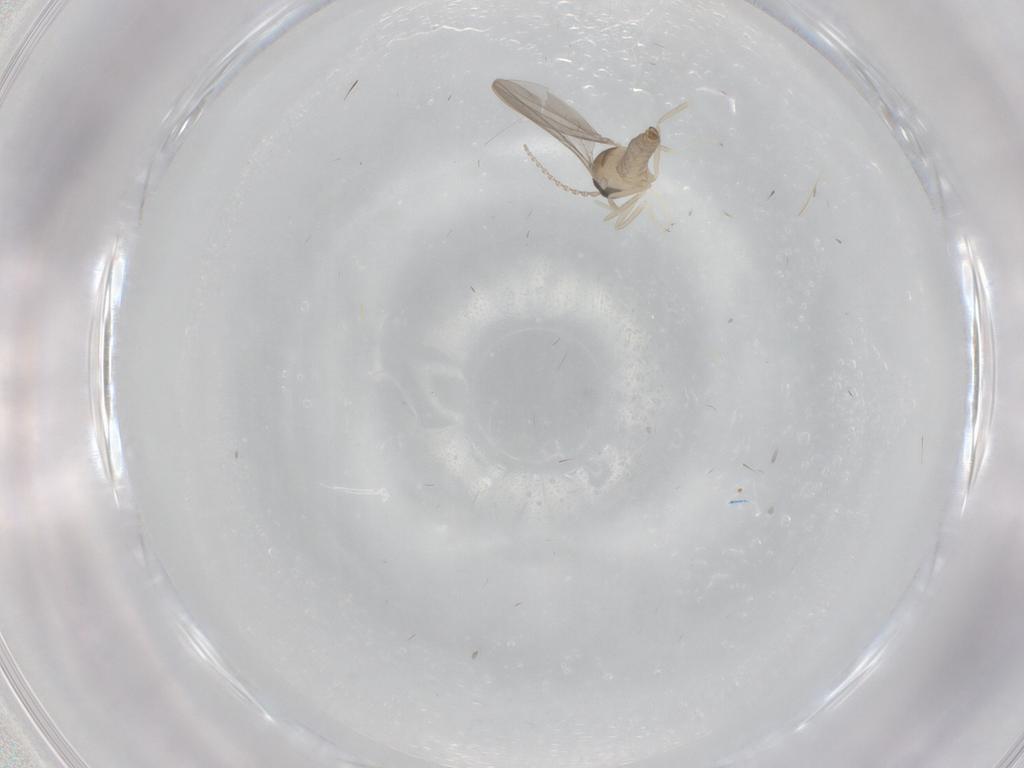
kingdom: Animalia
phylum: Arthropoda
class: Insecta
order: Diptera
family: Cecidomyiidae
